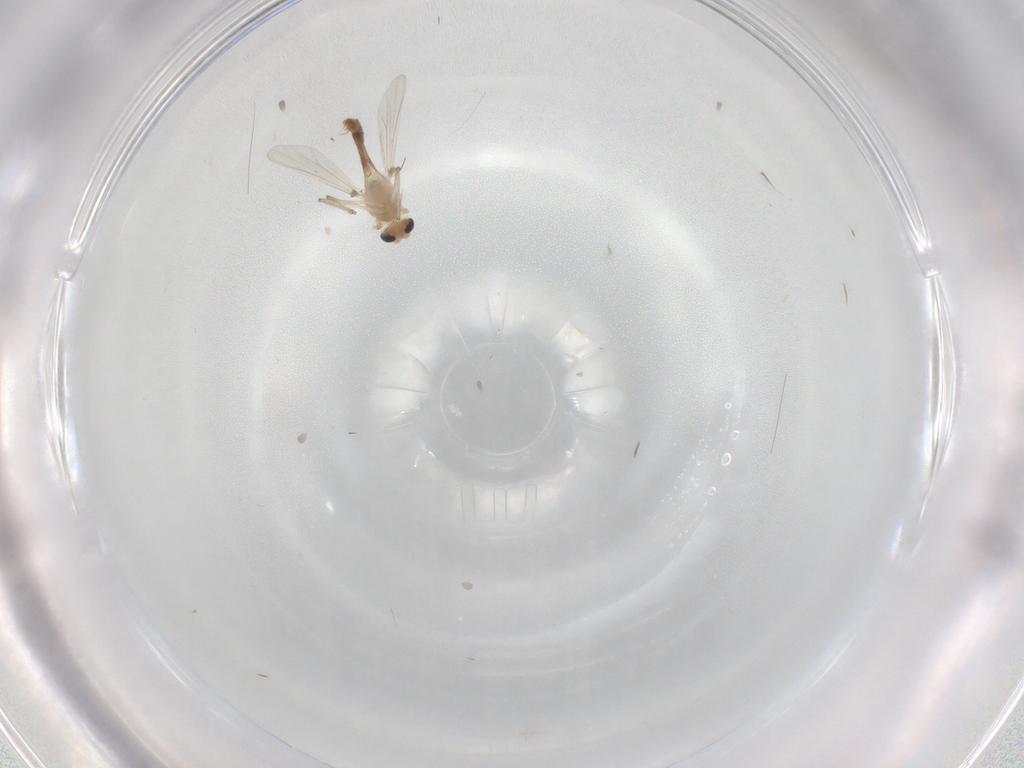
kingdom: Animalia
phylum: Arthropoda
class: Insecta
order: Diptera
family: Chironomidae
